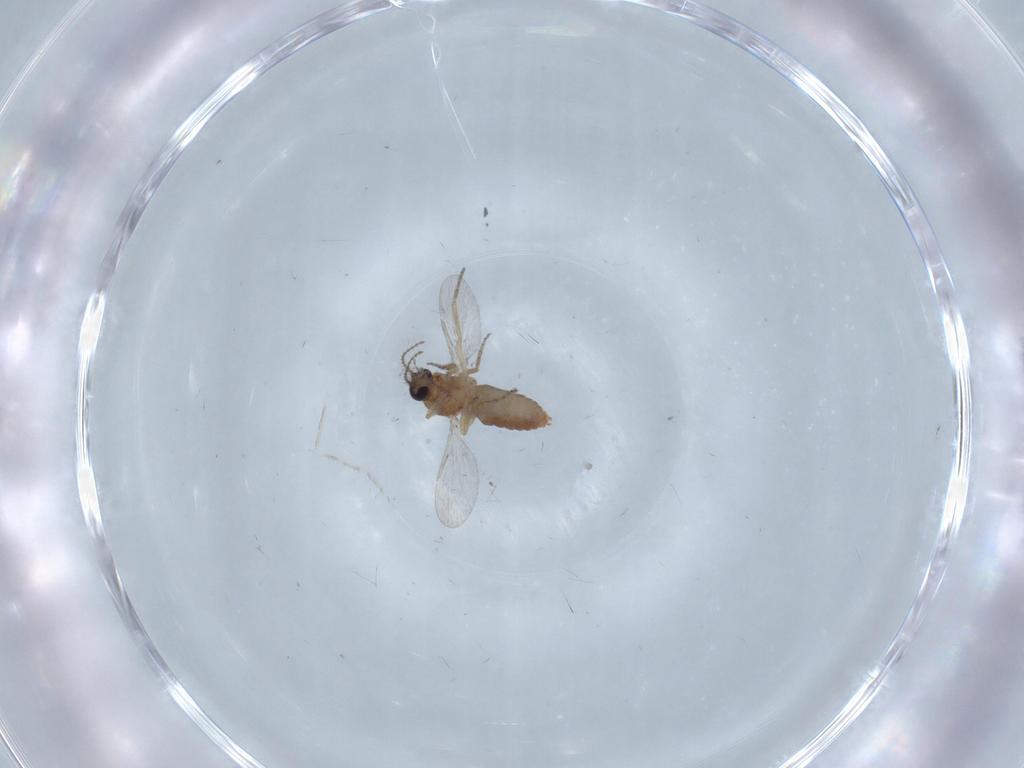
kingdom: Animalia
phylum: Arthropoda
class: Insecta
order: Diptera
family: Ceratopogonidae
